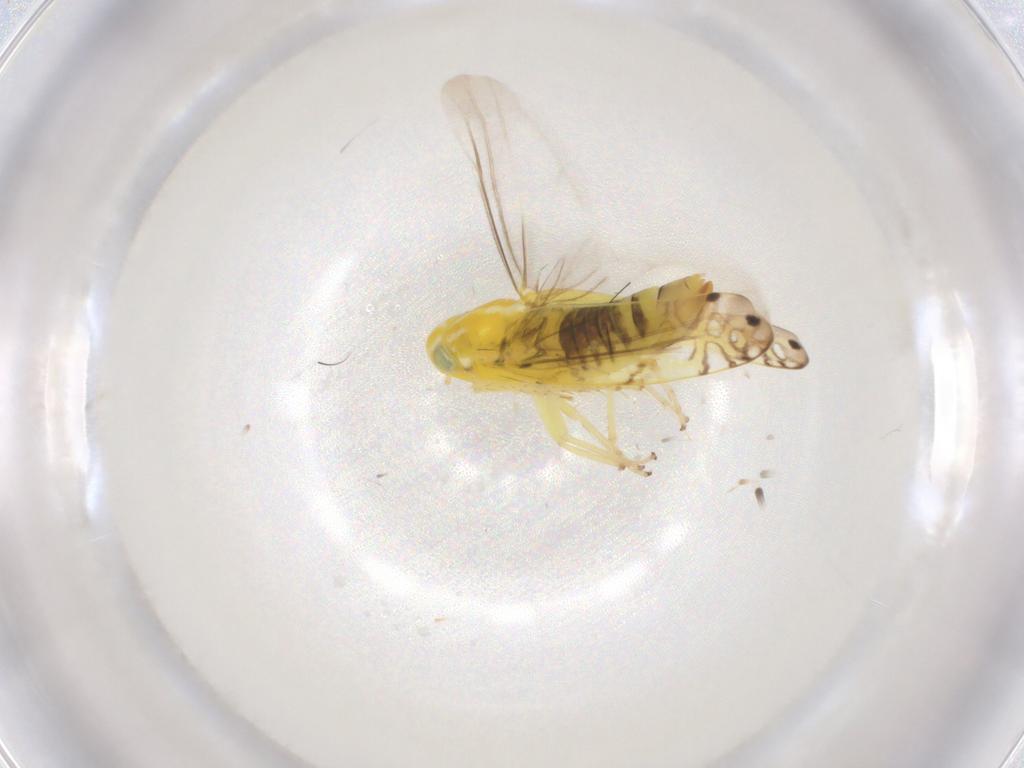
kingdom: Animalia
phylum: Arthropoda
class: Insecta
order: Hemiptera
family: Cicadellidae
